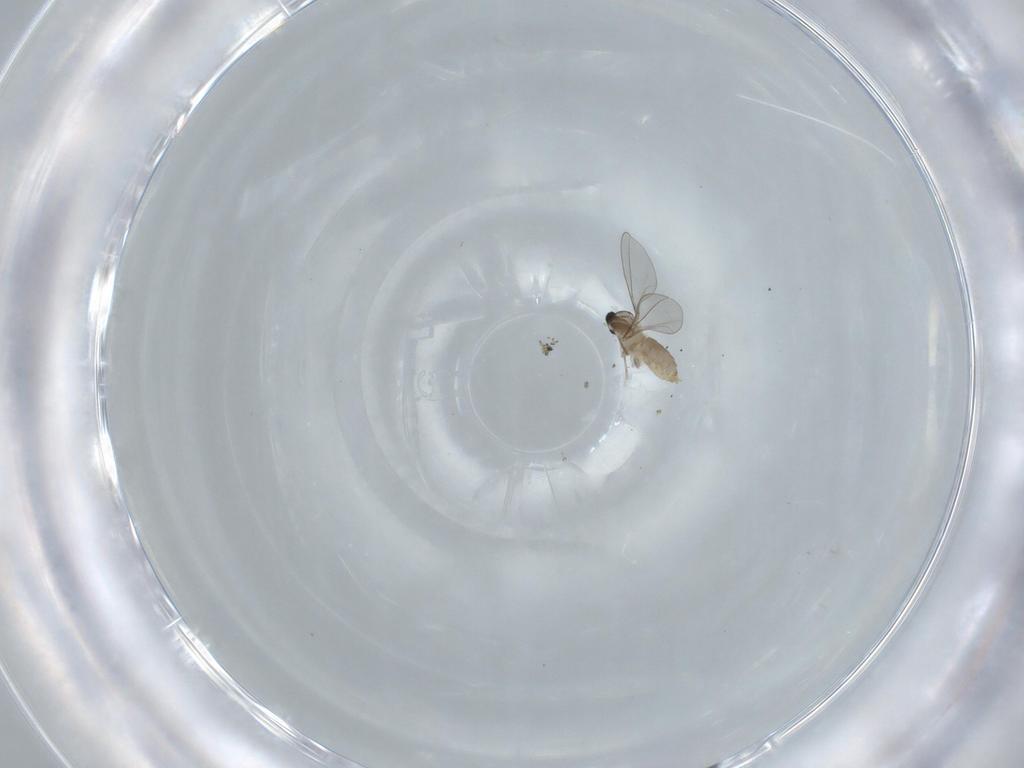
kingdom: Animalia
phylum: Arthropoda
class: Insecta
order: Diptera
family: Cecidomyiidae
